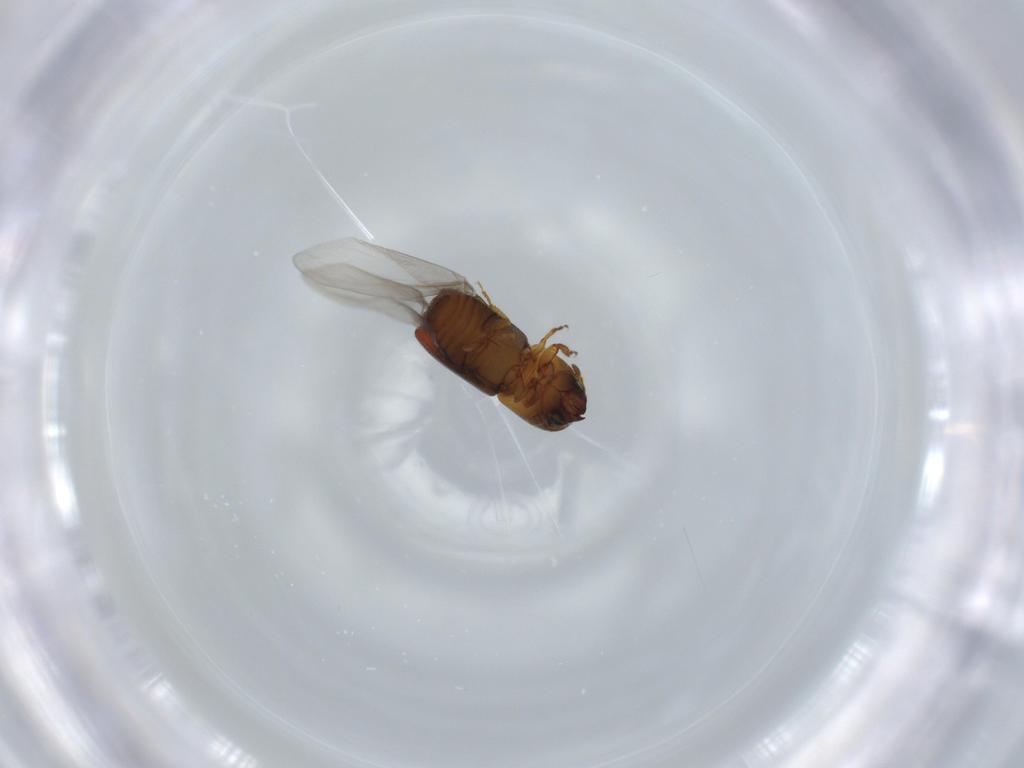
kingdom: Animalia
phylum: Arthropoda
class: Insecta
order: Coleoptera
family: Curculionidae
